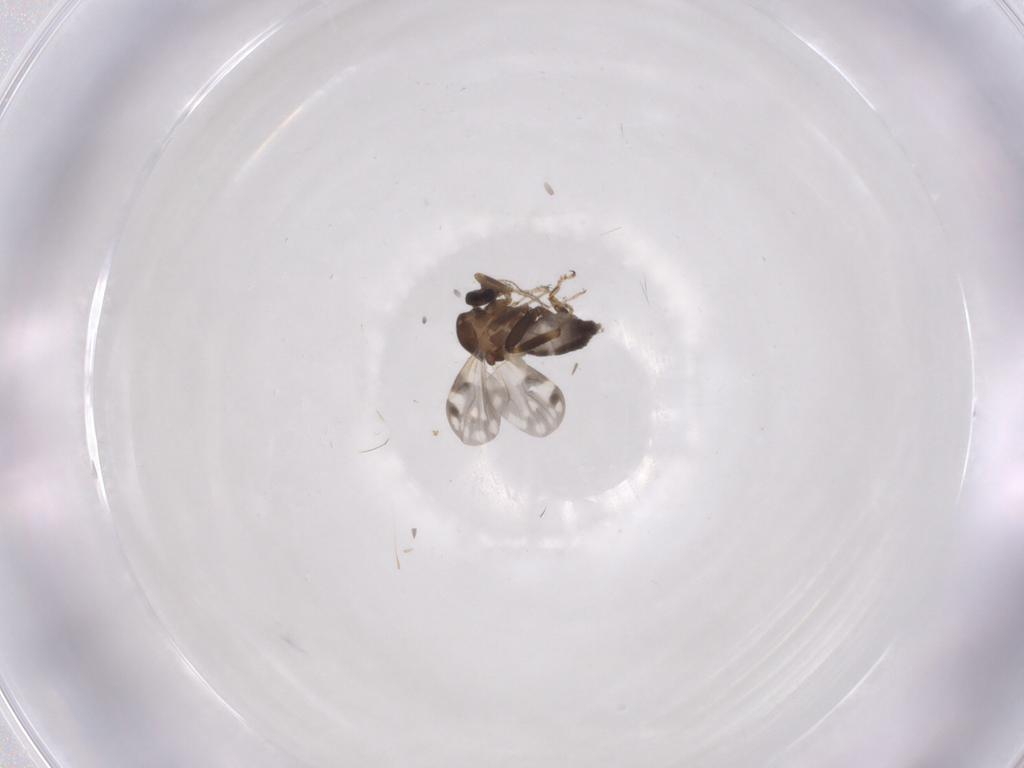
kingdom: Animalia
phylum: Arthropoda
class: Insecta
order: Diptera
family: Ceratopogonidae
